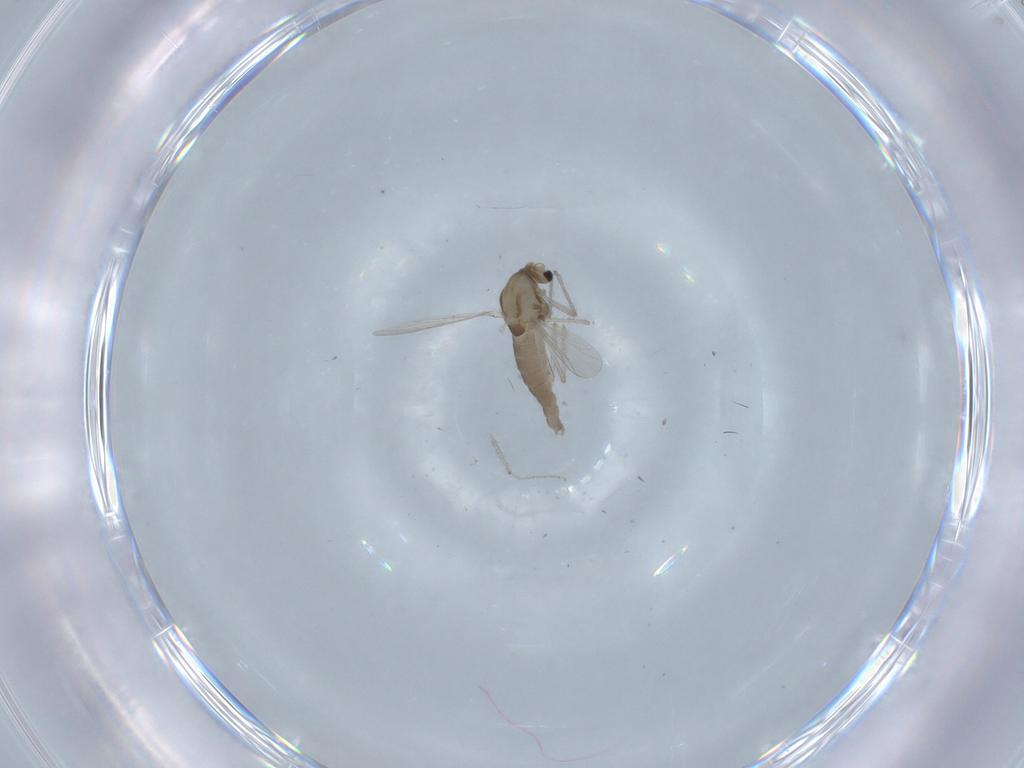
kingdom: Animalia
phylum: Arthropoda
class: Insecta
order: Diptera
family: Chironomidae
